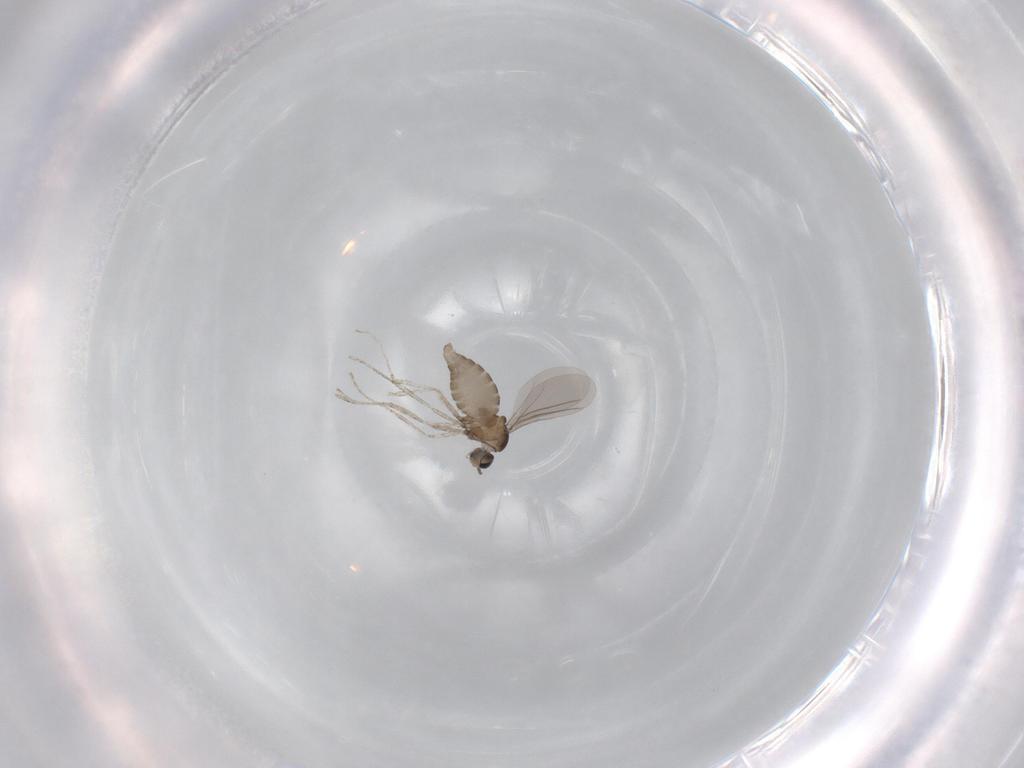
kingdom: Animalia
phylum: Arthropoda
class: Insecta
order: Diptera
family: Cecidomyiidae
